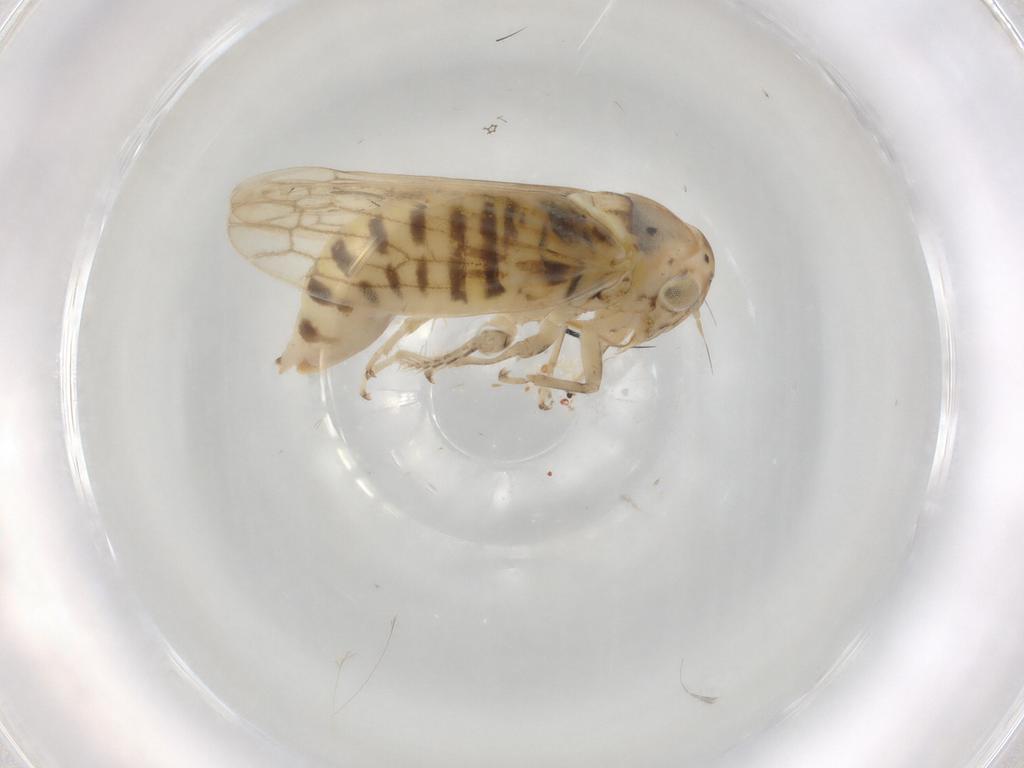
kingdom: Animalia
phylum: Arthropoda
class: Insecta
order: Hemiptera
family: Cicadellidae
